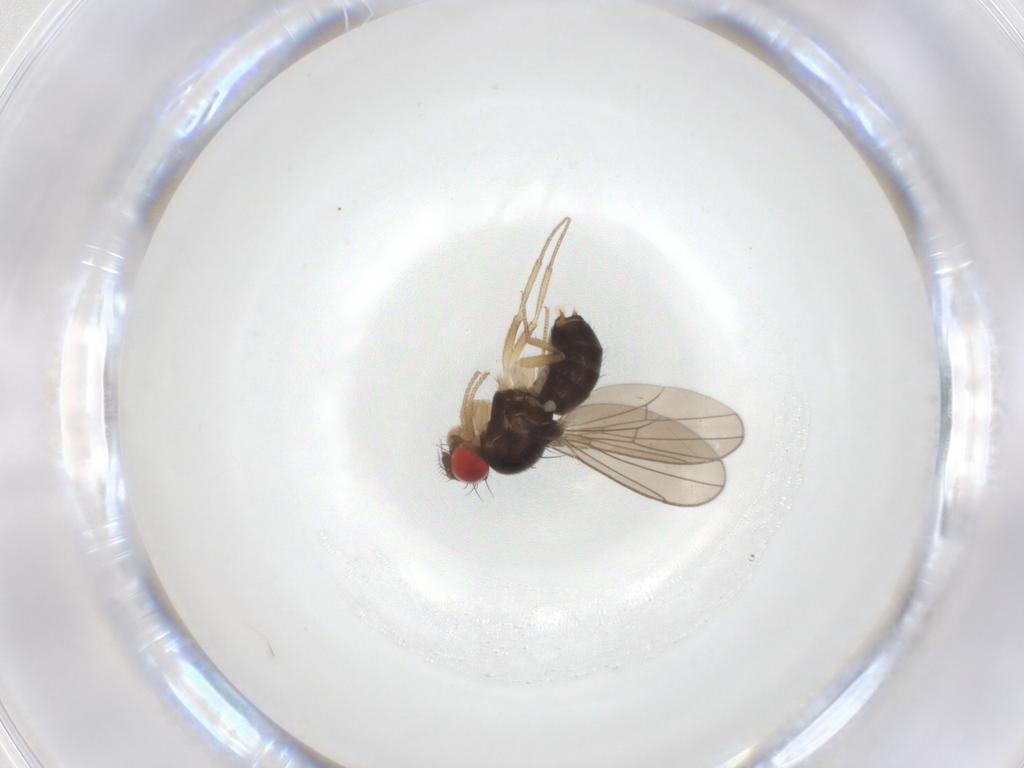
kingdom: Animalia
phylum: Arthropoda
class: Insecta
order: Diptera
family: Drosophilidae
